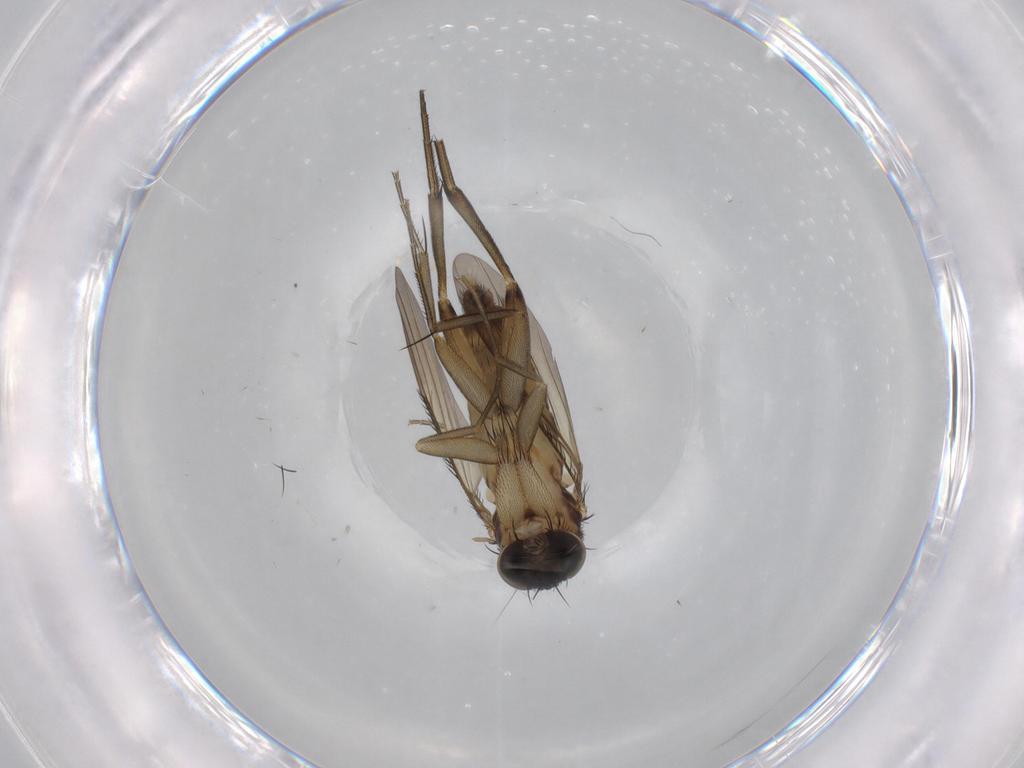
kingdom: Animalia
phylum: Arthropoda
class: Insecta
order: Diptera
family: Phoridae
